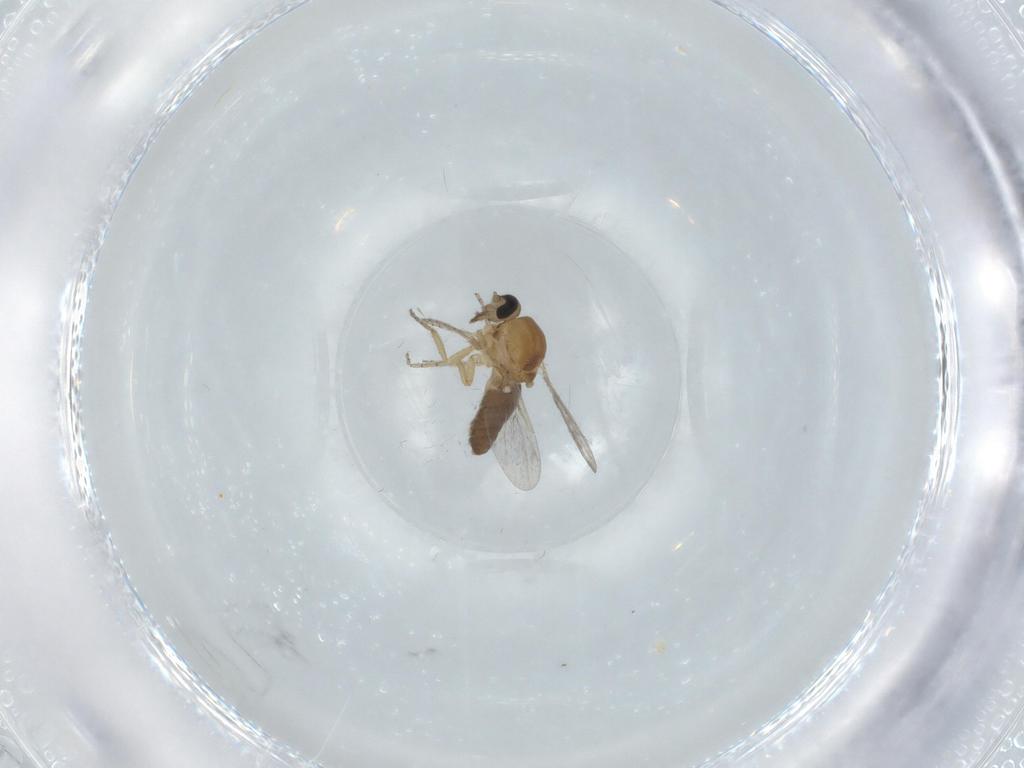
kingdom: Animalia
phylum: Arthropoda
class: Insecta
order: Diptera
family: Ceratopogonidae
